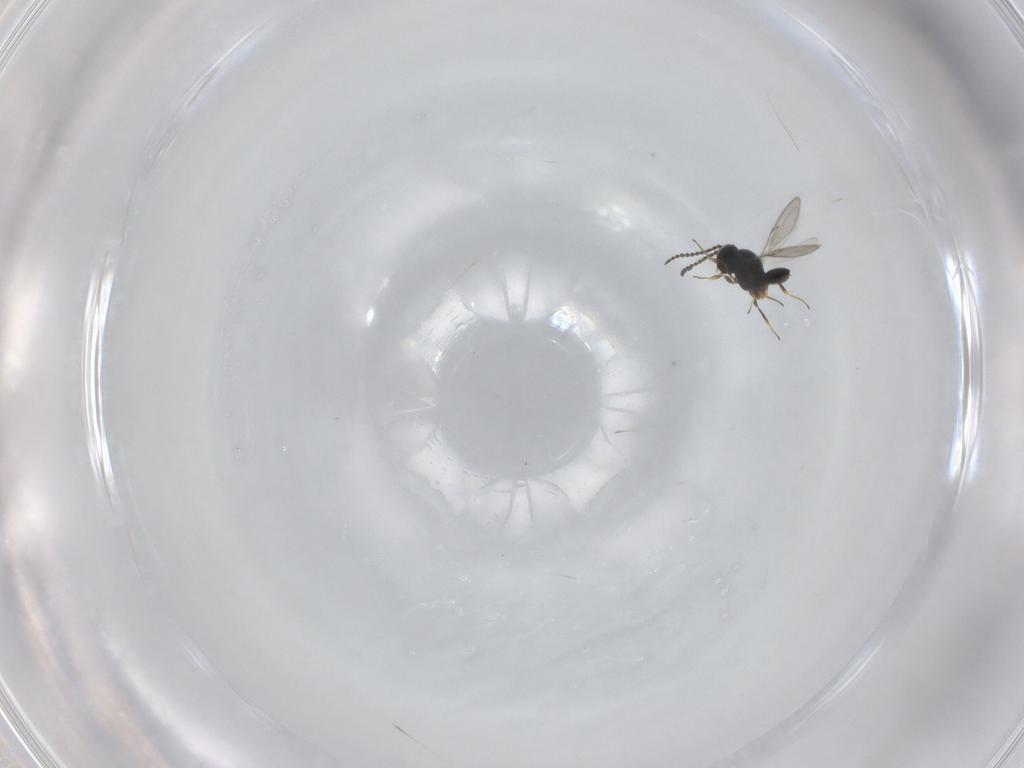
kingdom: Animalia
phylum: Arthropoda
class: Insecta
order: Hymenoptera
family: Scelionidae
